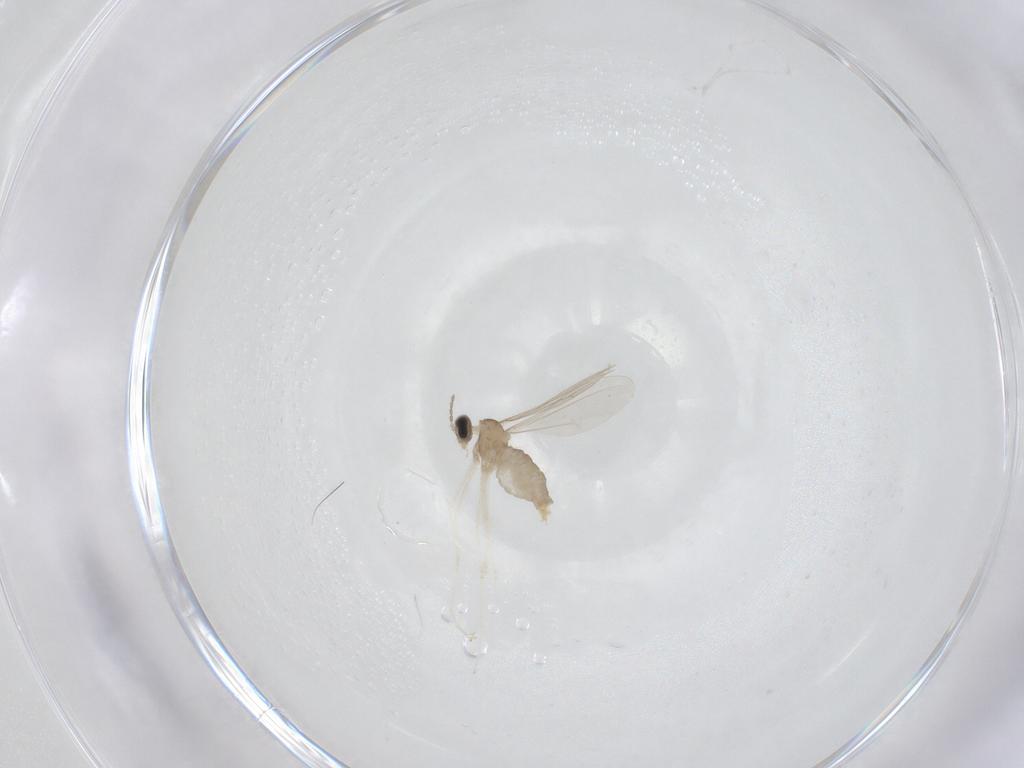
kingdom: Animalia
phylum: Arthropoda
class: Insecta
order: Diptera
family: Cecidomyiidae
